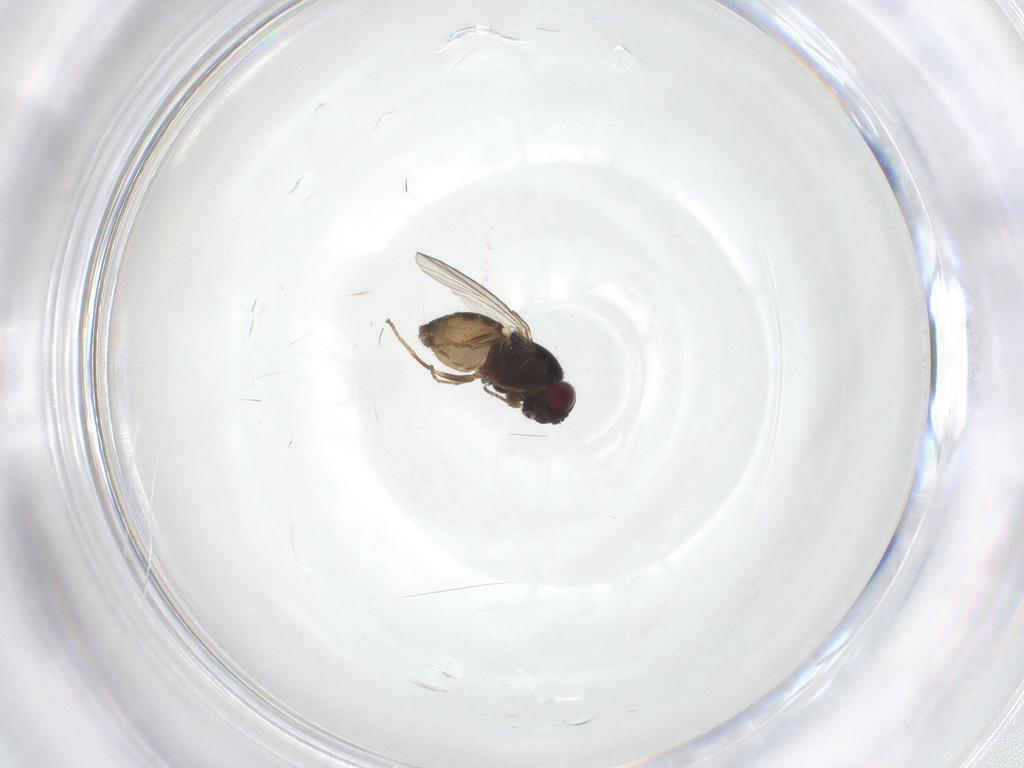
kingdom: Animalia
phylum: Arthropoda
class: Insecta
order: Diptera
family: Carnidae
